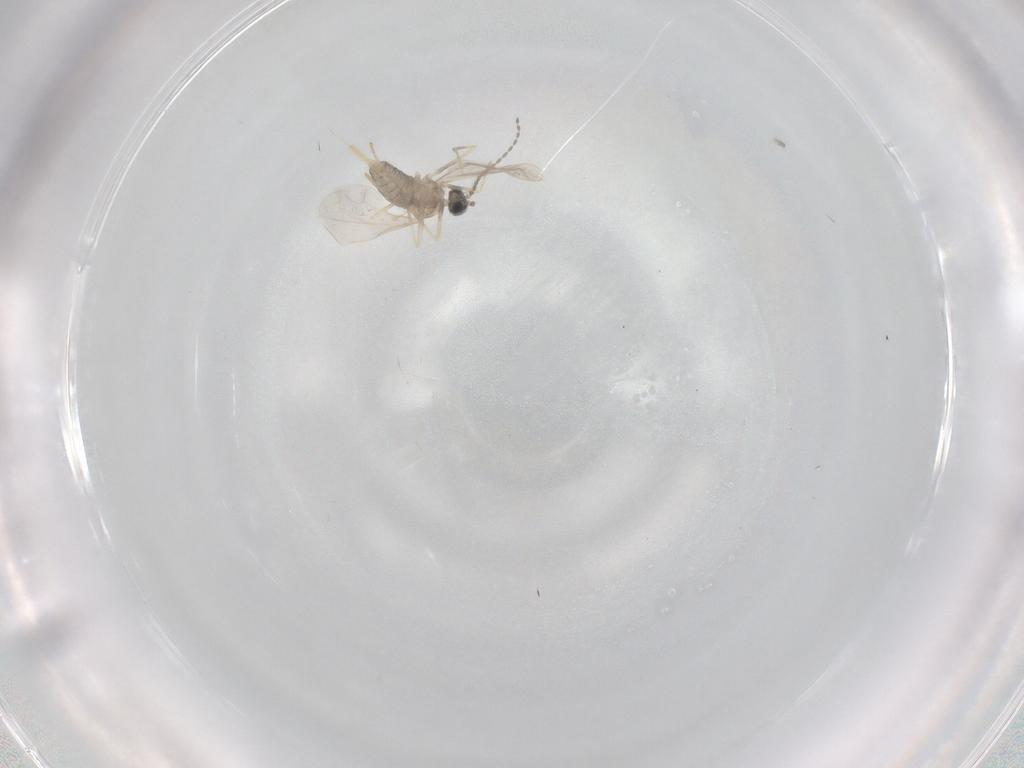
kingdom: Animalia
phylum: Arthropoda
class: Insecta
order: Diptera
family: Cecidomyiidae
